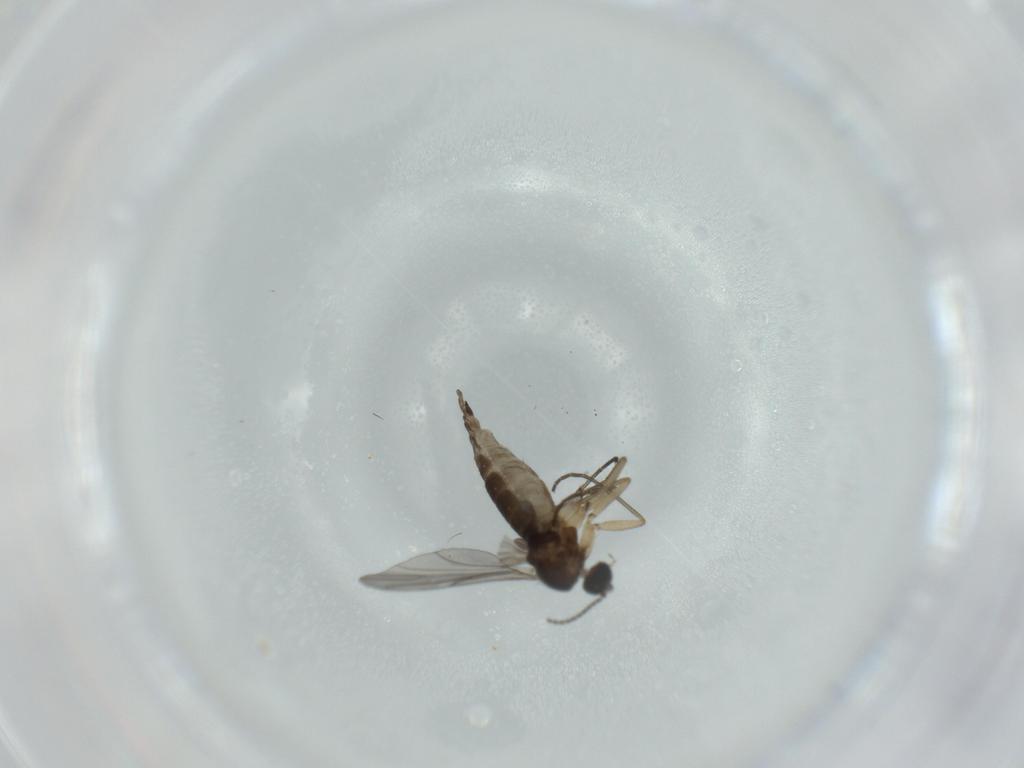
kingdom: Animalia
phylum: Arthropoda
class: Insecta
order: Diptera
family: Sciaridae
